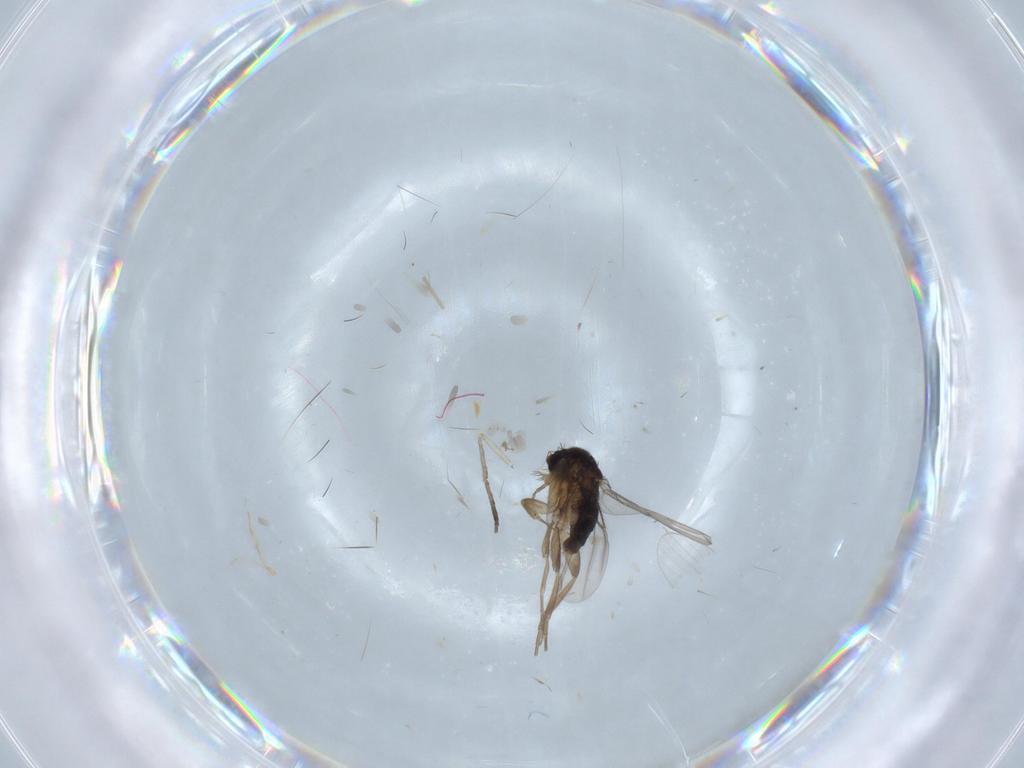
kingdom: Animalia
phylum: Arthropoda
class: Insecta
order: Diptera
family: Phoridae
